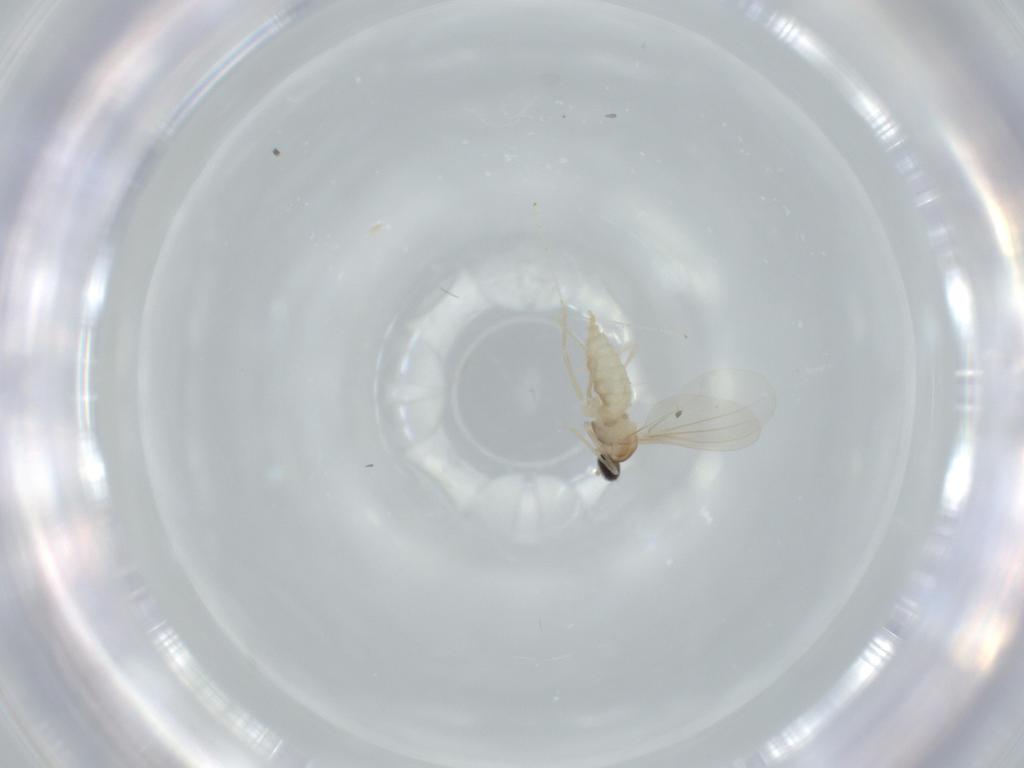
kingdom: Animalia
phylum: Arthropoda
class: Insecta
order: Diptera
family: Cecidomyiidae
